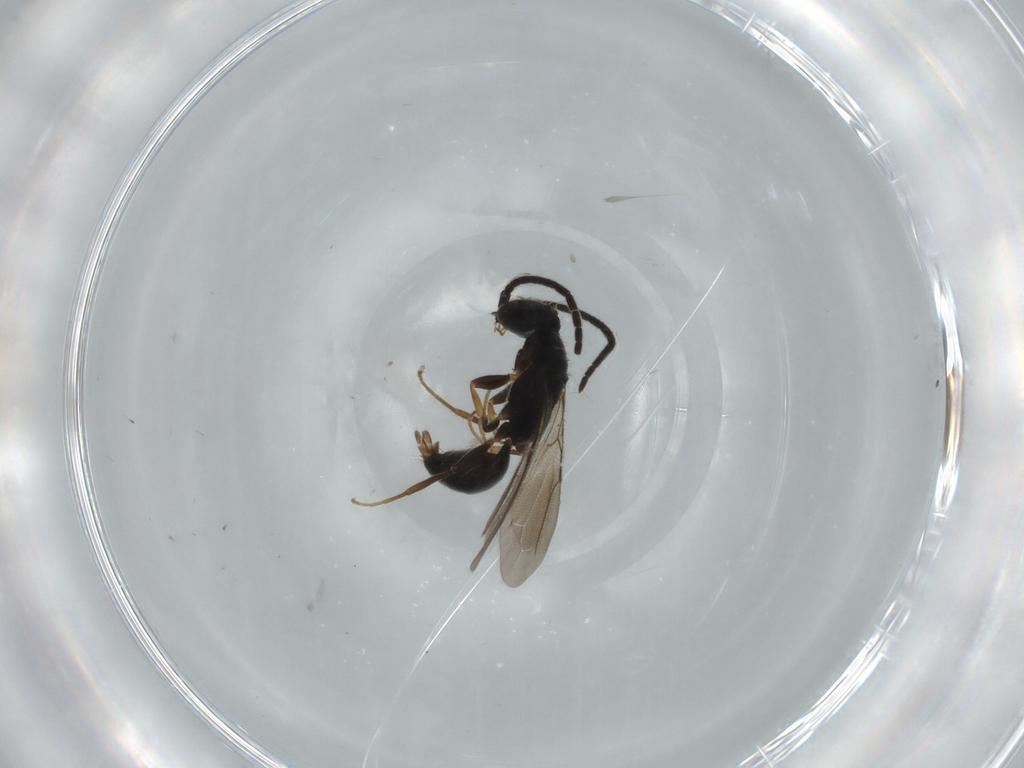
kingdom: Animalia
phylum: Arthropoda
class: Insecta
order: Hymenoptera
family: Bethylidae
